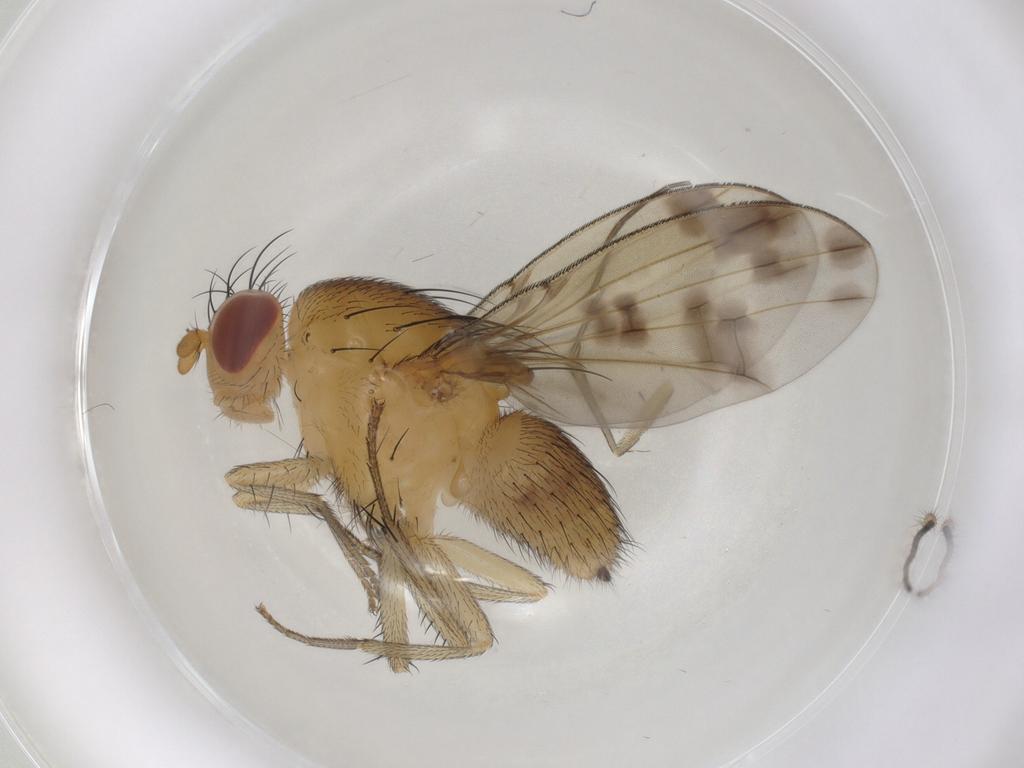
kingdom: Animalia
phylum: Arthropoda
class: Insecta
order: Diptera
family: Keroplatidae
